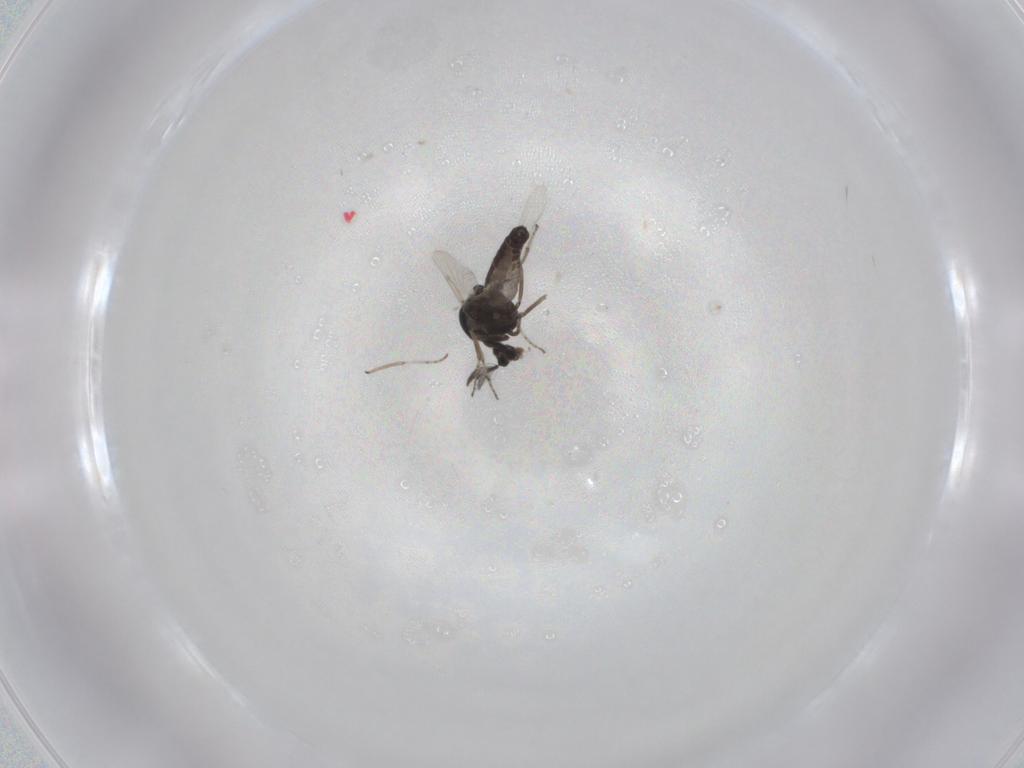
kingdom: Animalia
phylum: Arthropoda
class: Insecta
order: Diptera
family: Ceratopogonidae
